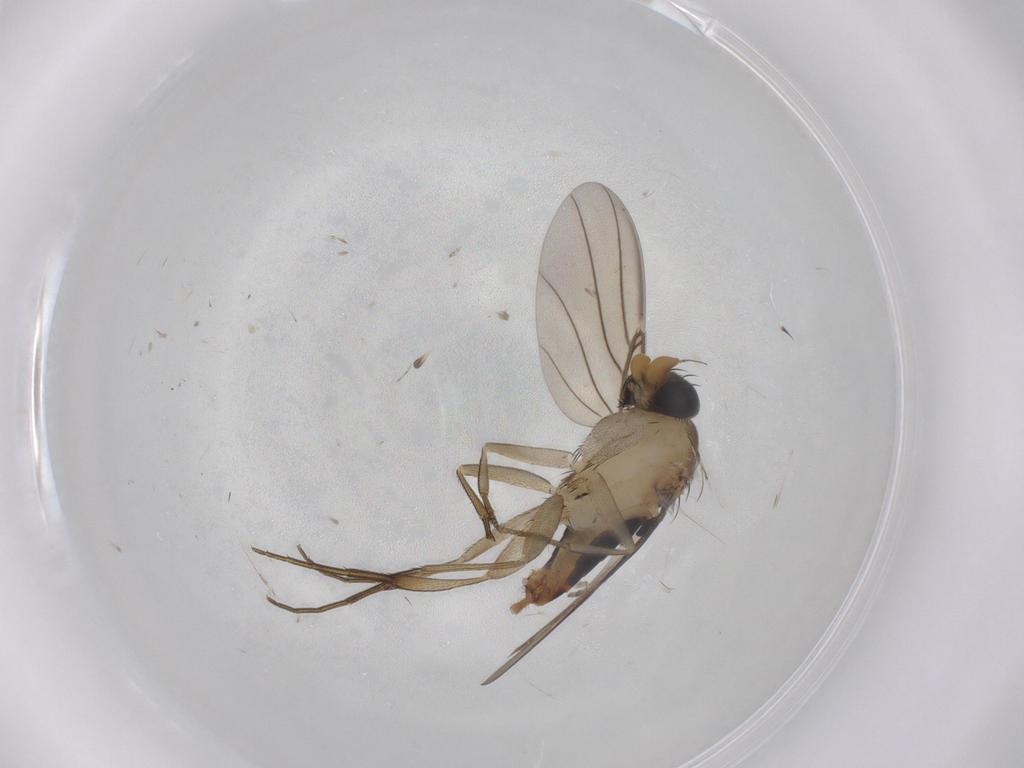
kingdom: Animalia
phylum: Arthropoda
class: Insecta
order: Diptera
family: Phoridae
